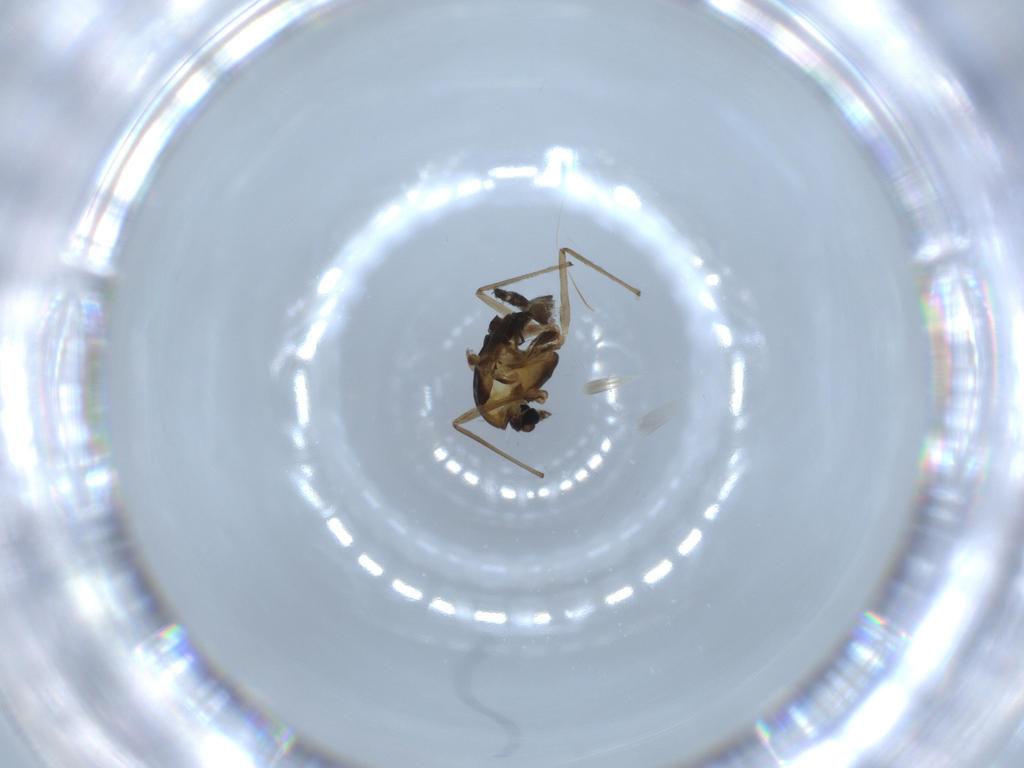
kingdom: Animalia
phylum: Arthropoda
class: Insecta
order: Diptera
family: Chironomidae
